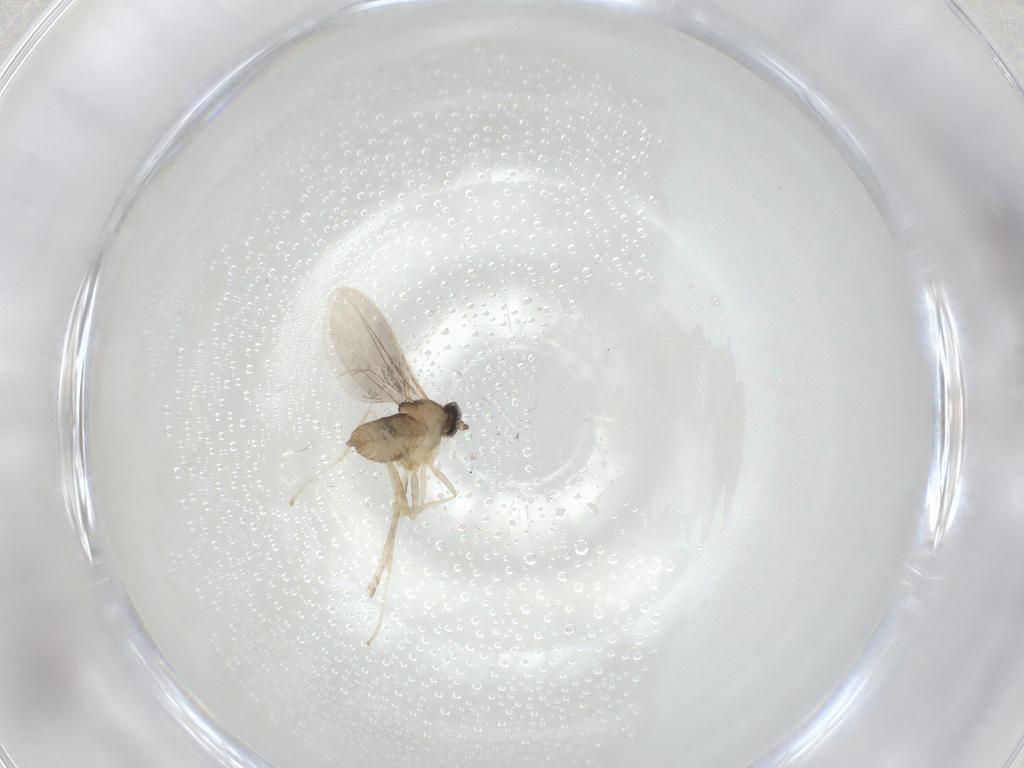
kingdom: Animalia
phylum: Arthropoda
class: Insecta
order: Diptera
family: Cecidomyiidae
